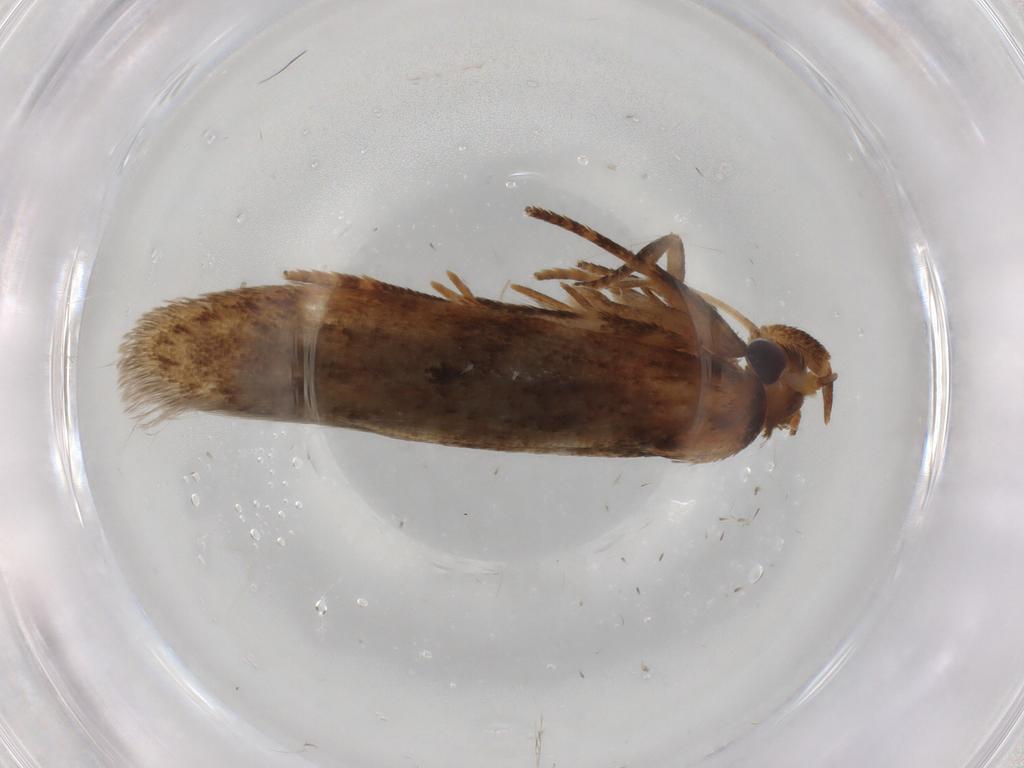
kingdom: Animalia
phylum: Arthropoda
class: Insecta
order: Lepidoptera
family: Blastobasidae
